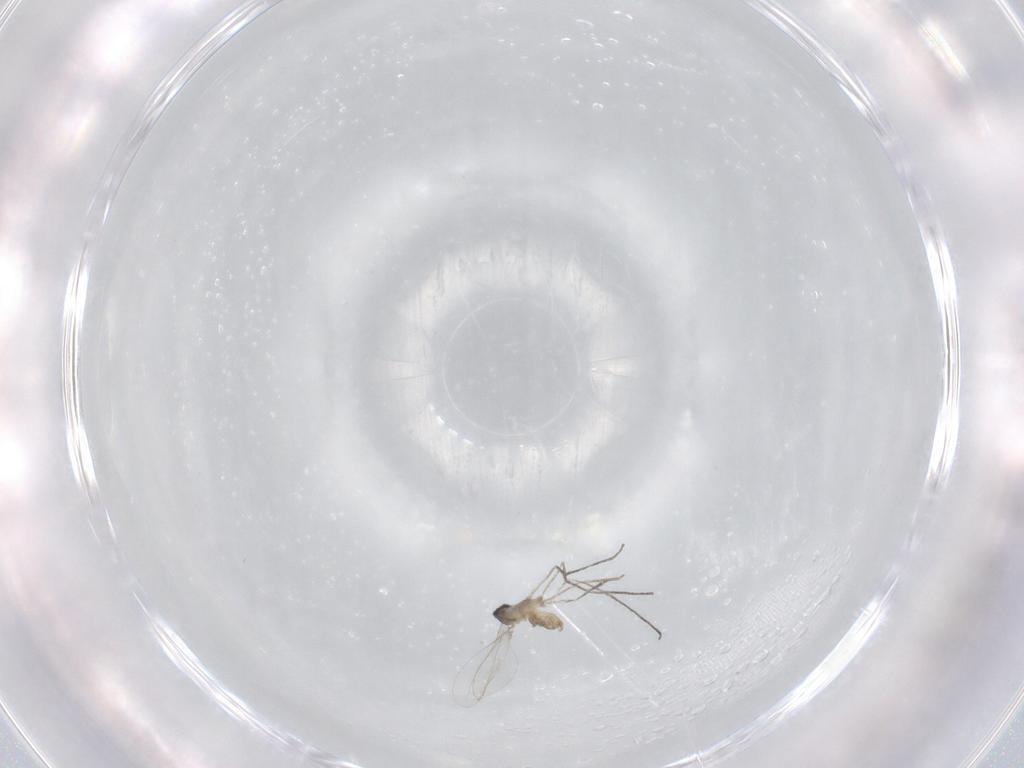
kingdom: Animalia
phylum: Arthropoda
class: Insecta
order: Diptera
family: Cecidomyiidae
